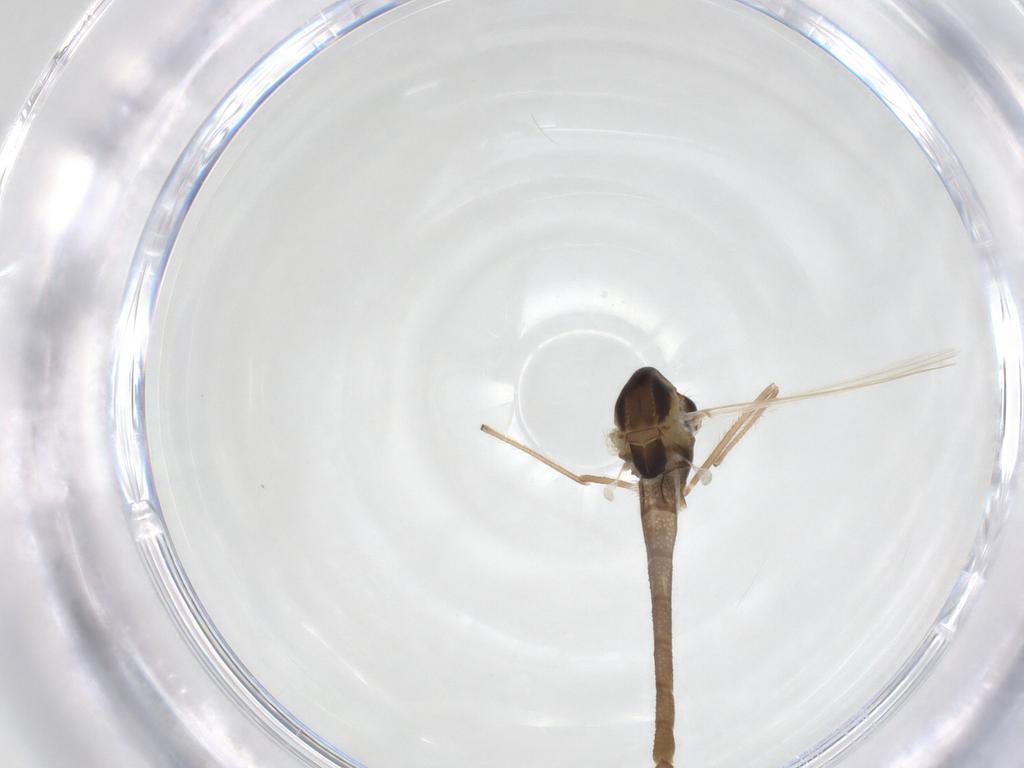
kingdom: Animalia
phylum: Arthropoda
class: Insecta
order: Diptera
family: Chironomidae
